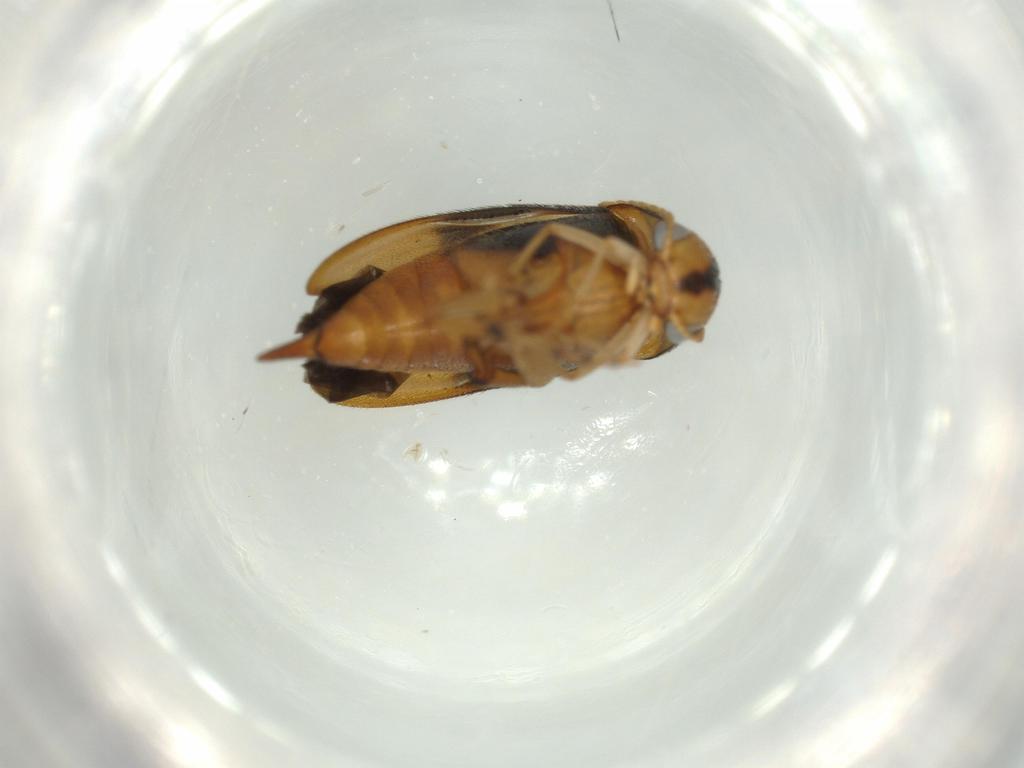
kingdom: Animalia
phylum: Arthropoda
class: Insecta
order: Coleoptera
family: Mordellidae
